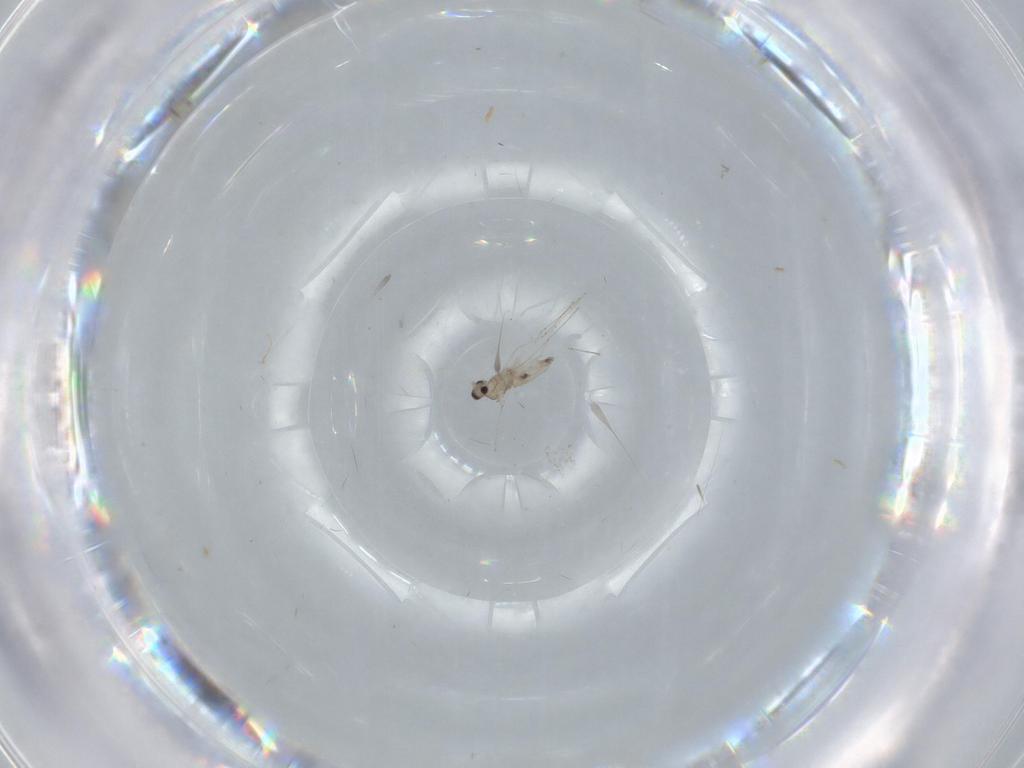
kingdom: Animalia
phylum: Arthropoda
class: Insecta
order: Diptera
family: Cecidomyiidae
